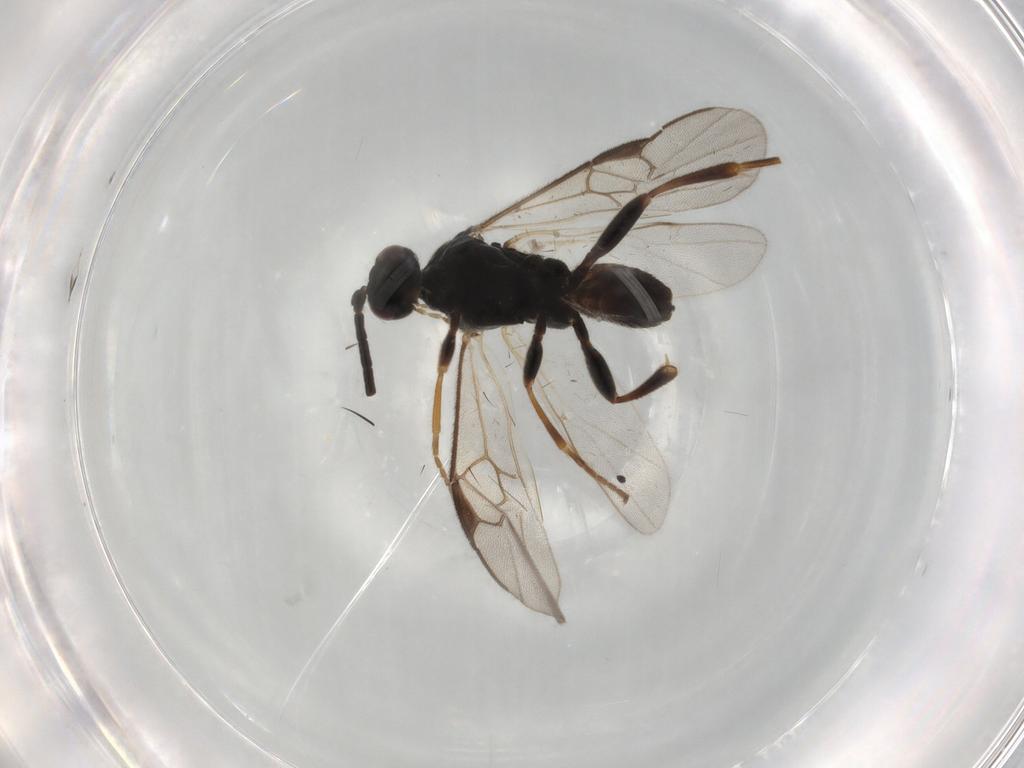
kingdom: Animalia
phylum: Arthropoda
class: Insecta
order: Hymenoptera
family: Braconidae
